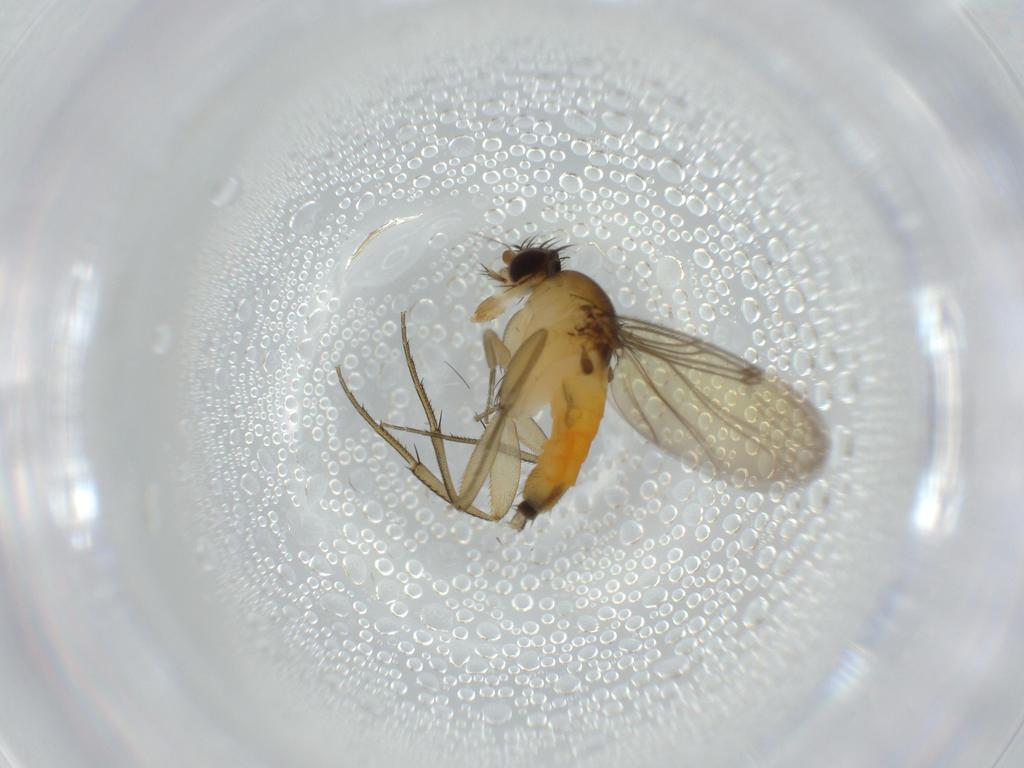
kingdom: Animalia
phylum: Arthropoda
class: Insecta
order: Diptera
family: Phoridae
